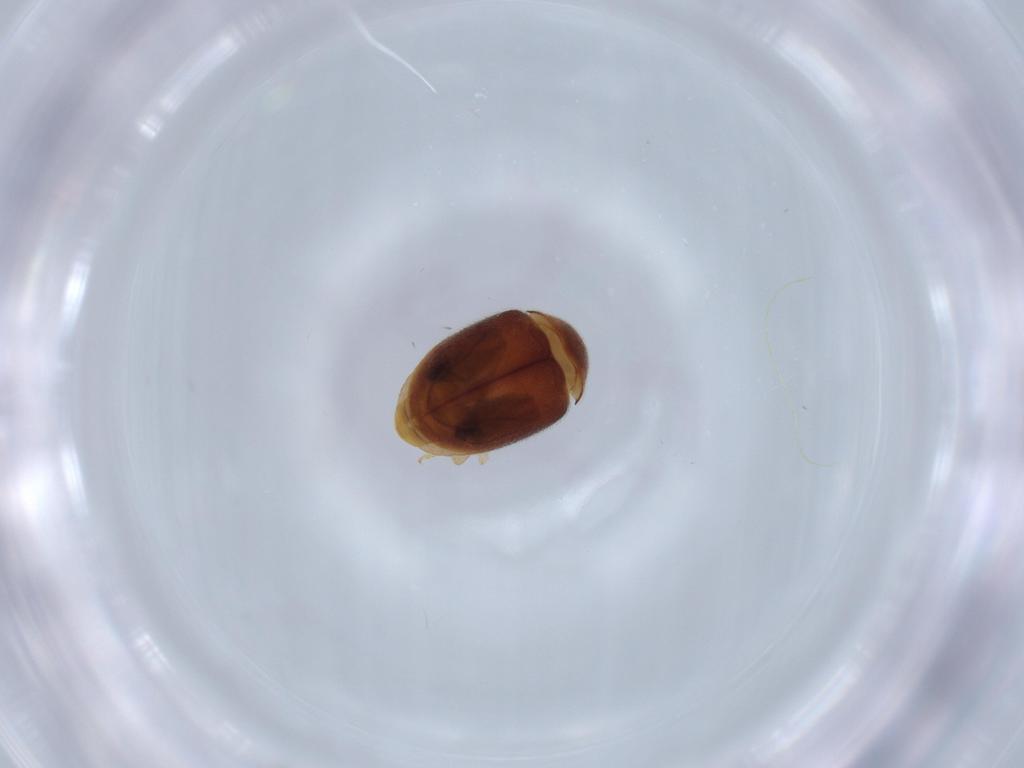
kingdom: Animalia
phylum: Arthropoda
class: Insecta
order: Coleoptera
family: Coccinellidae
